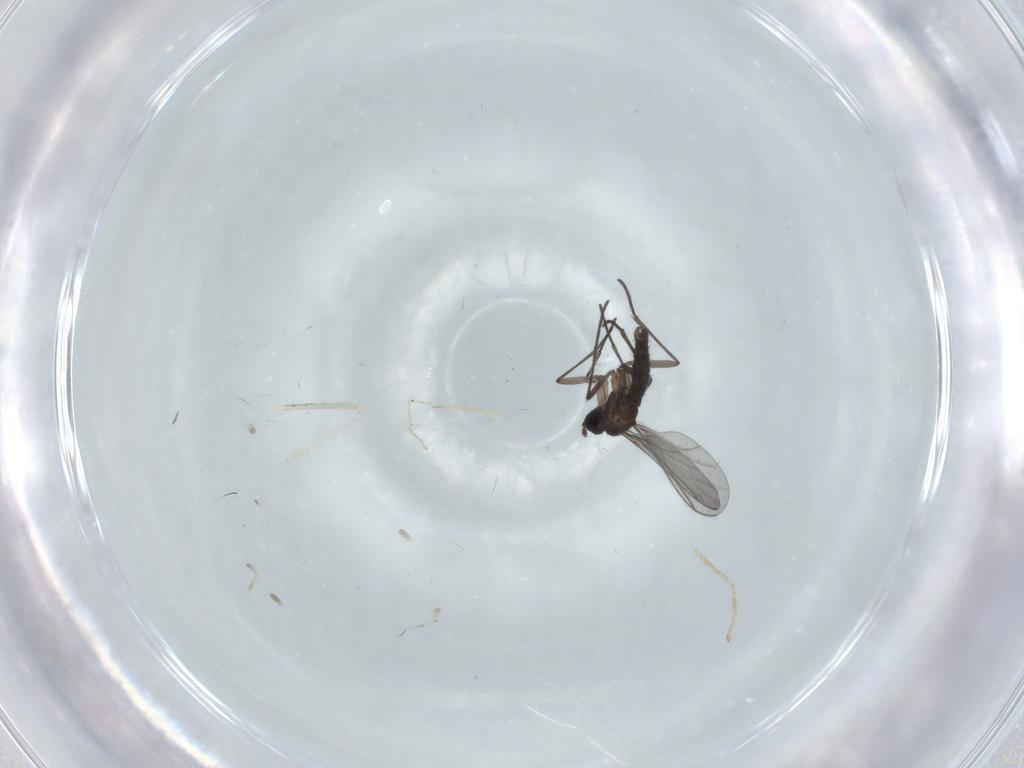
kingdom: Animalia
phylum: Arthropoda
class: Insecta
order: Diptera
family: Chironomidae
